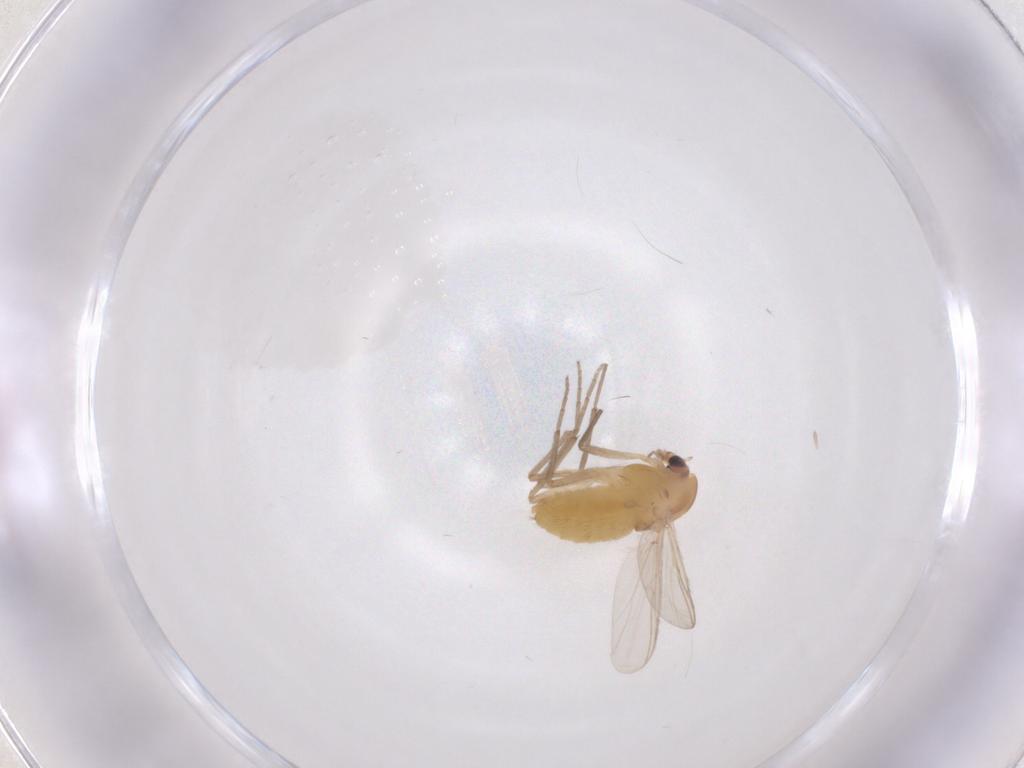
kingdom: Animalia
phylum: Arthropoda
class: Insecta
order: Diptera
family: Chironomidae
